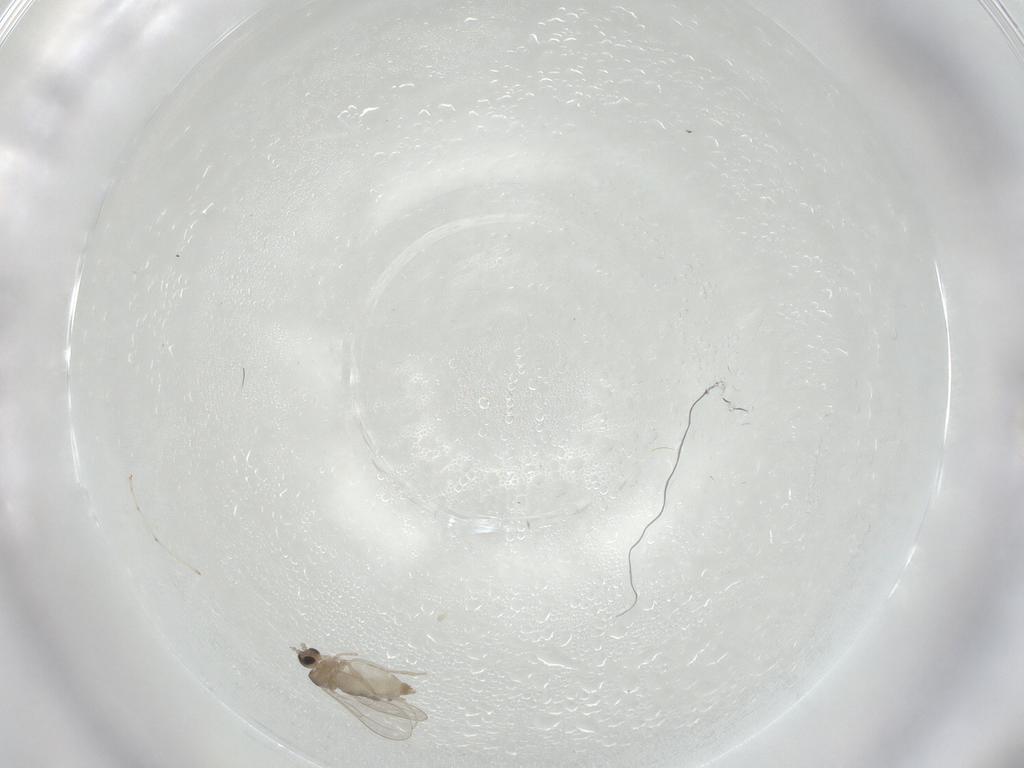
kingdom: Animalia
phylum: Arthropoda
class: Insecta
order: Diptera
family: Cecidomyiidae
